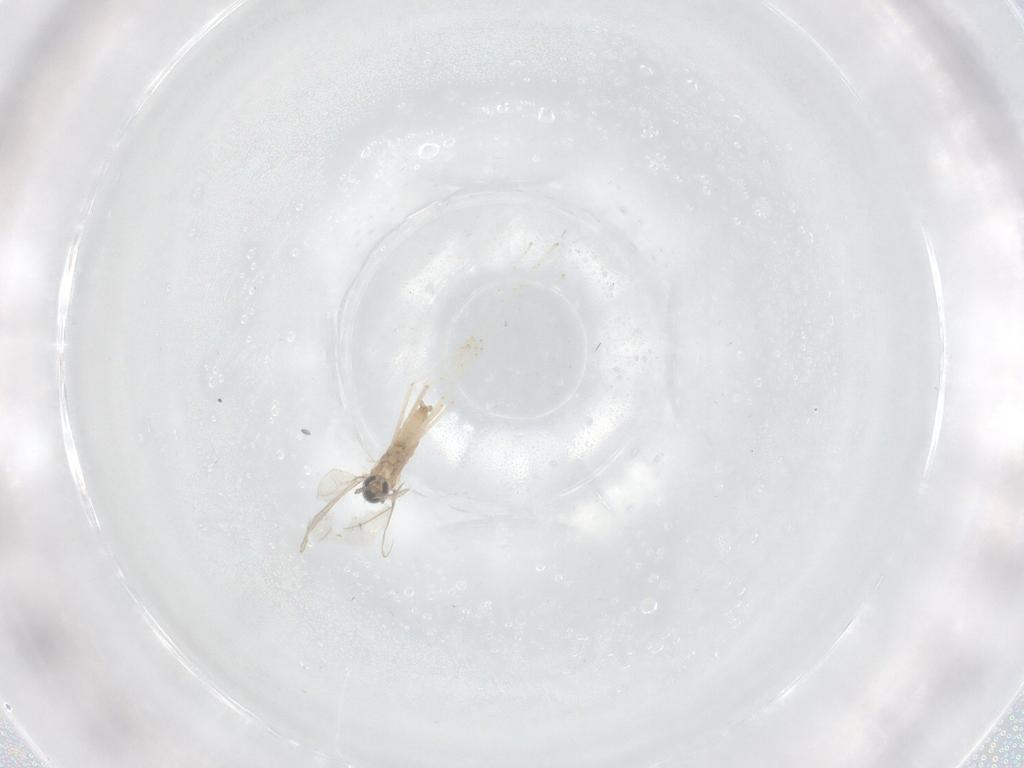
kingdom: Animalia
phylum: Arthropoda
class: Insecta
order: Diptera
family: Cecidomyiidae
